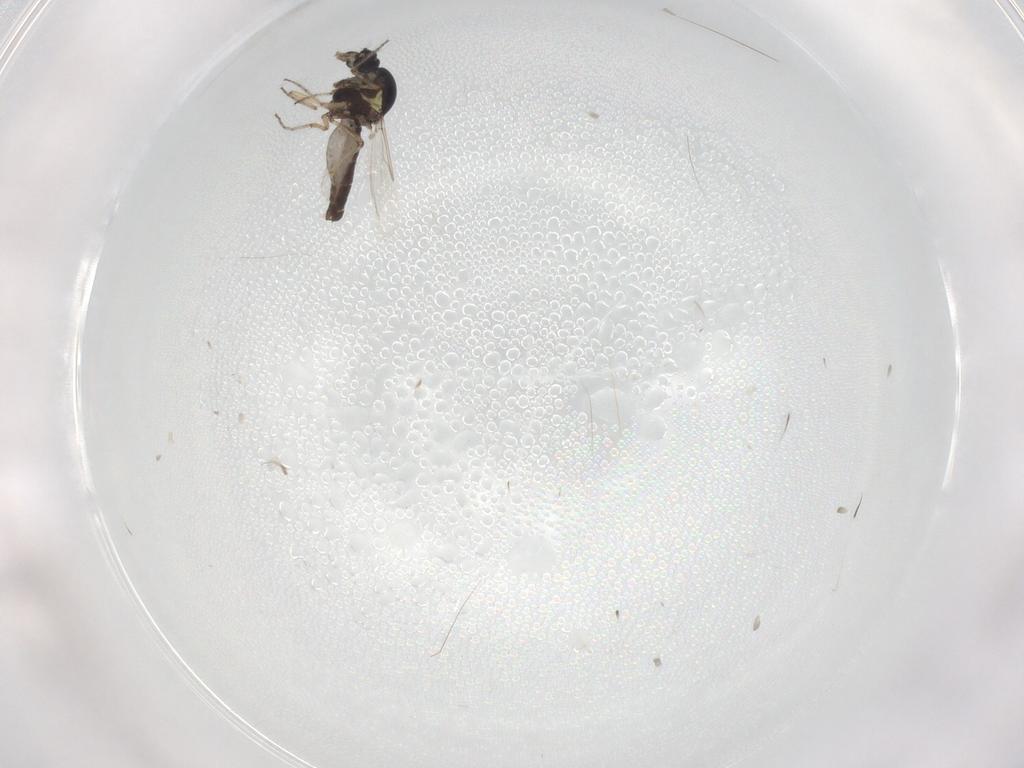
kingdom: Animalia
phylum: Arthropoda
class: Insecta
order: Diptera
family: Ceratopogonidae
